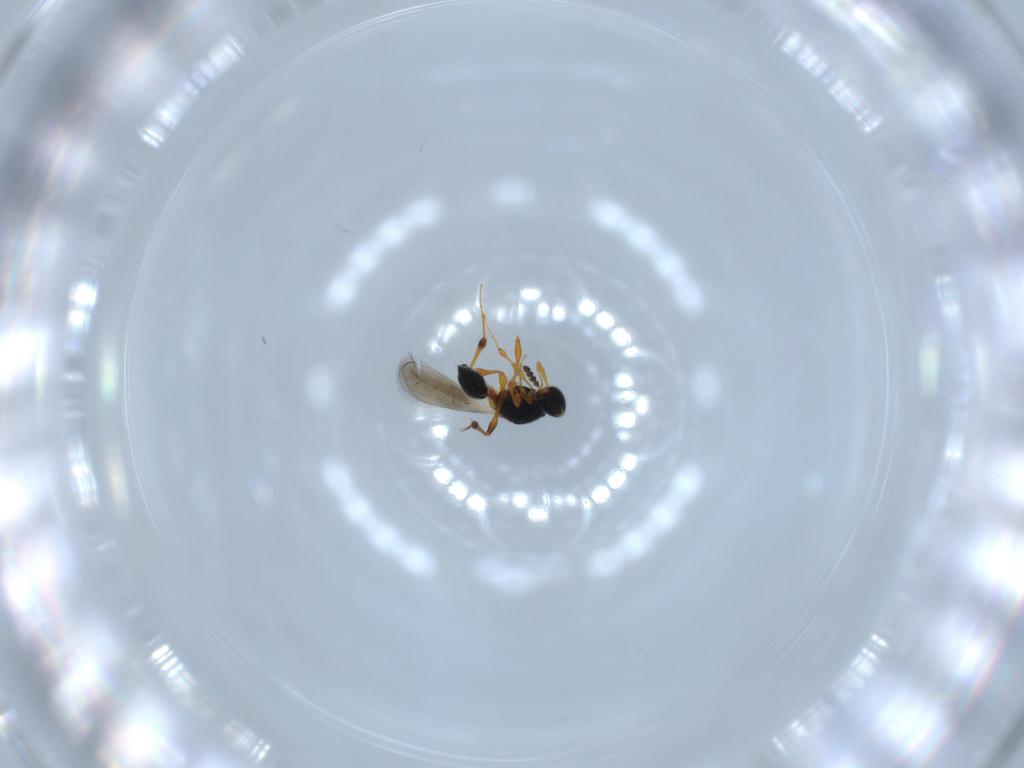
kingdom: Animalia
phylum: Arthropoda
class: Insecta
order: Hymenoptera
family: Platygastridae
